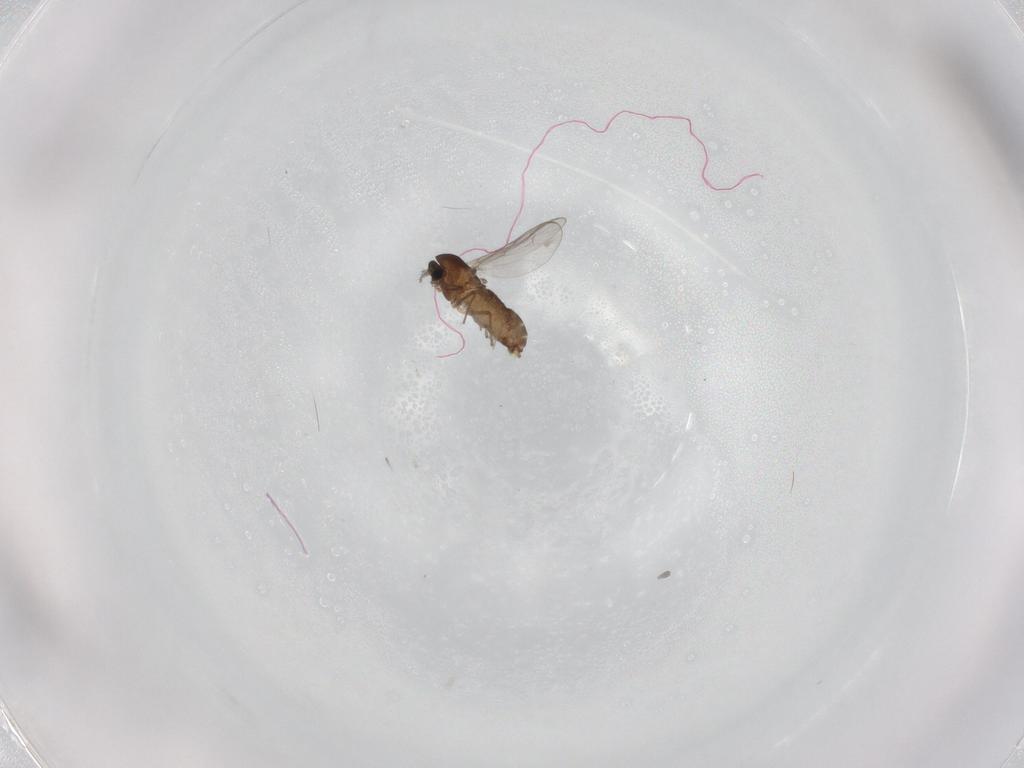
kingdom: Animalia
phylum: Arthropoda
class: Insecta
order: Diptera
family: Chironomidae
